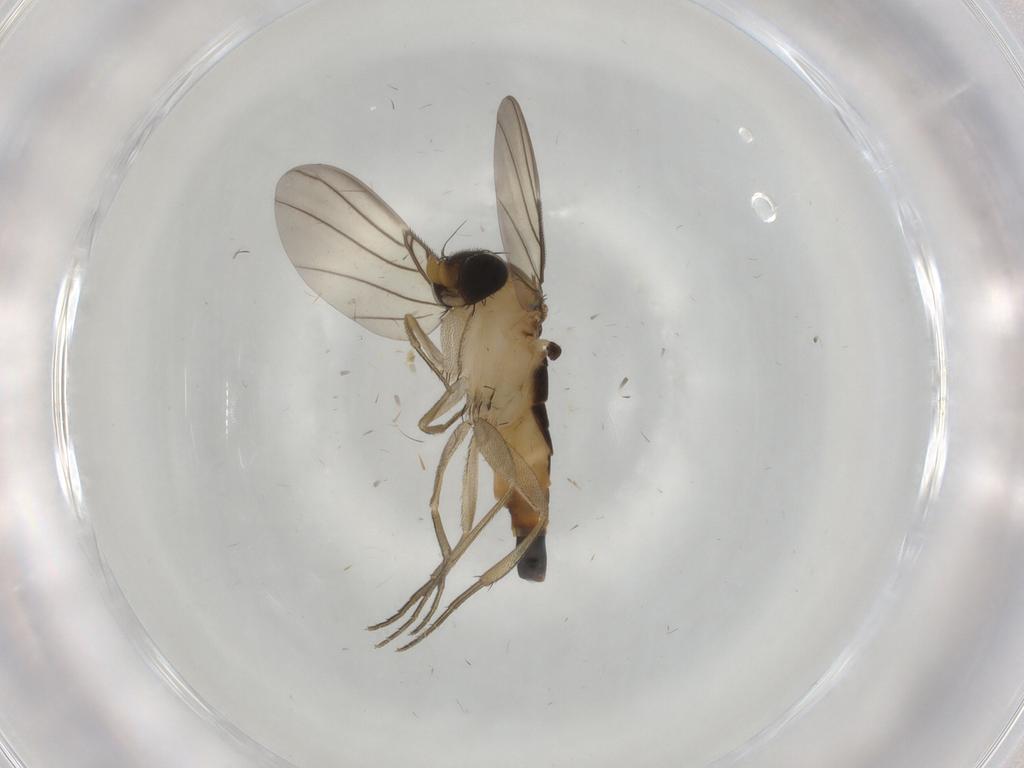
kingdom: Animalia
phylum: Arthropoda
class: Insecta
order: Diptera
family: Phoridae
